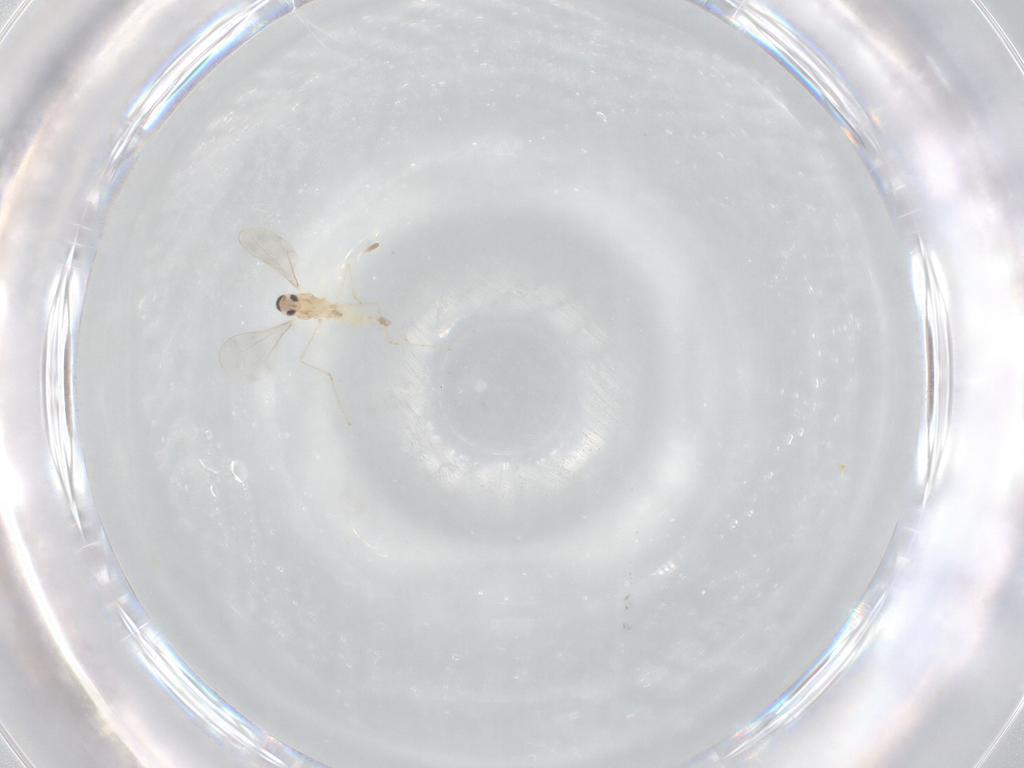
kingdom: Animalia
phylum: Arthropoda
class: Insecta
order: Diptera
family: Cecidomyiidae
